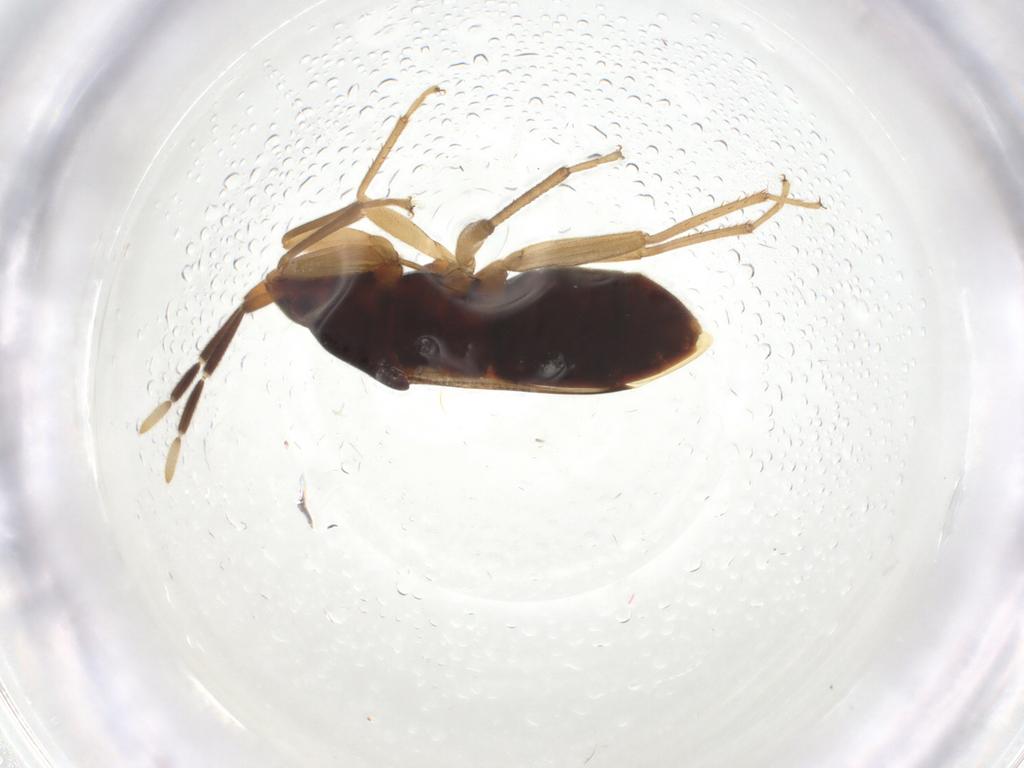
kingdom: Animalia
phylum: Arthropoda
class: Insecta
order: Hemiptera
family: Rhyparochromidae
